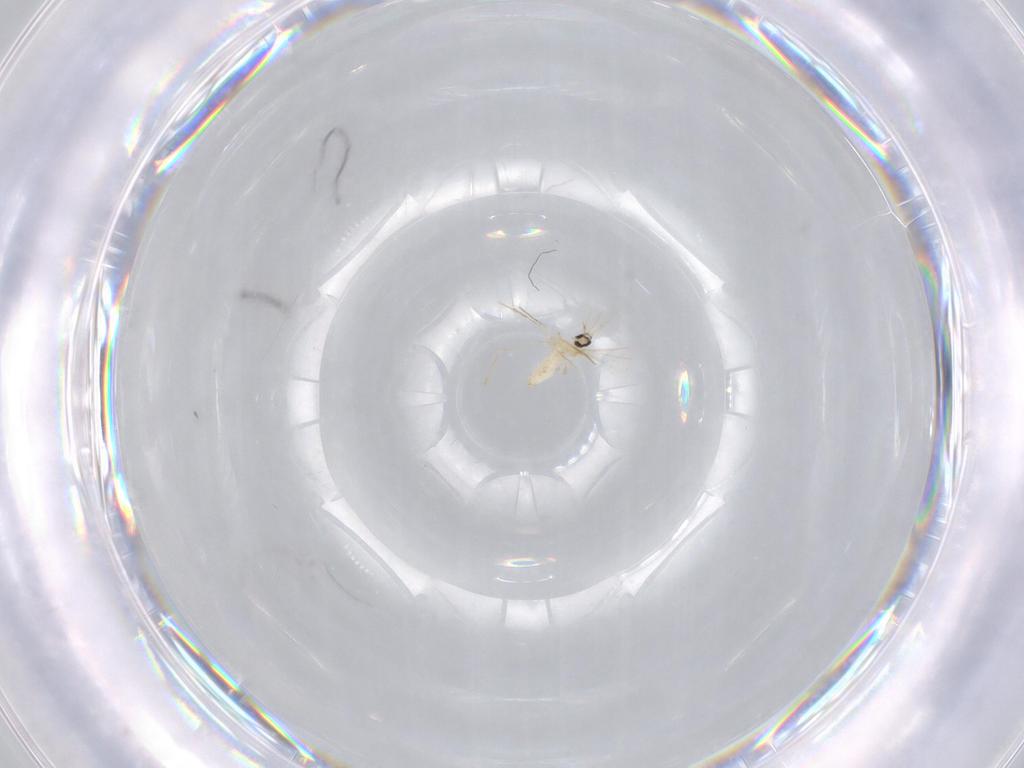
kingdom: Animalia
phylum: Arthropoda
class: Insecta
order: Diptera
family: Cecidomyiidae
